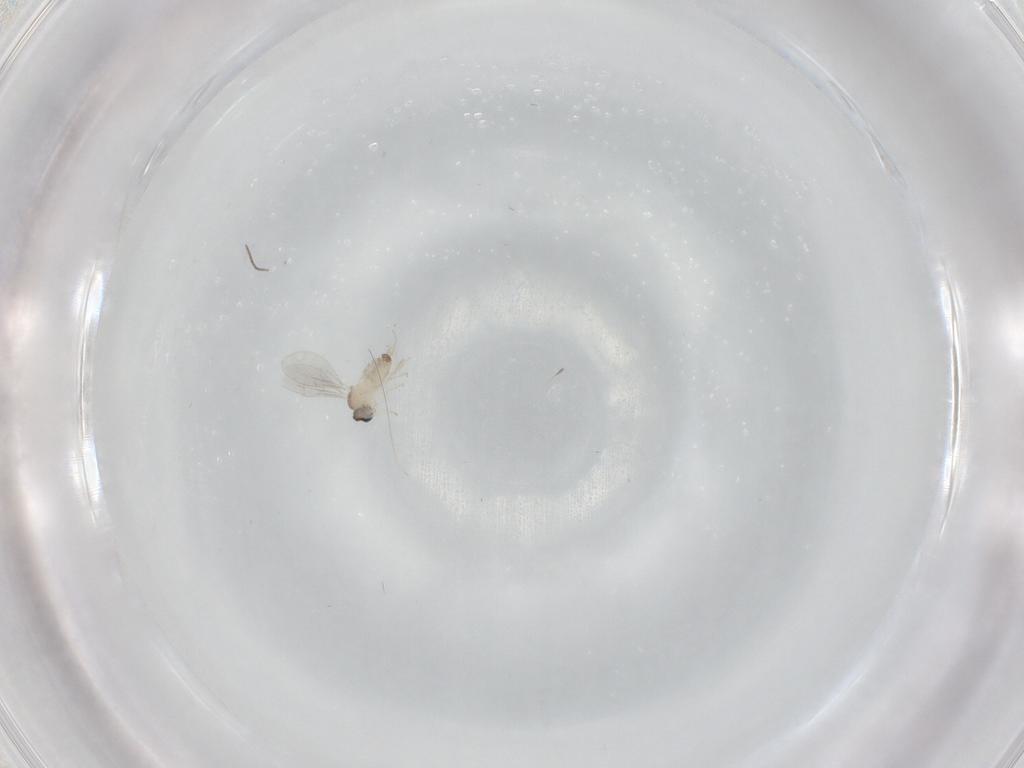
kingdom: Animalia
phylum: Arthropoda
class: Insecta
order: Diptera
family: Cecidomyiidae
